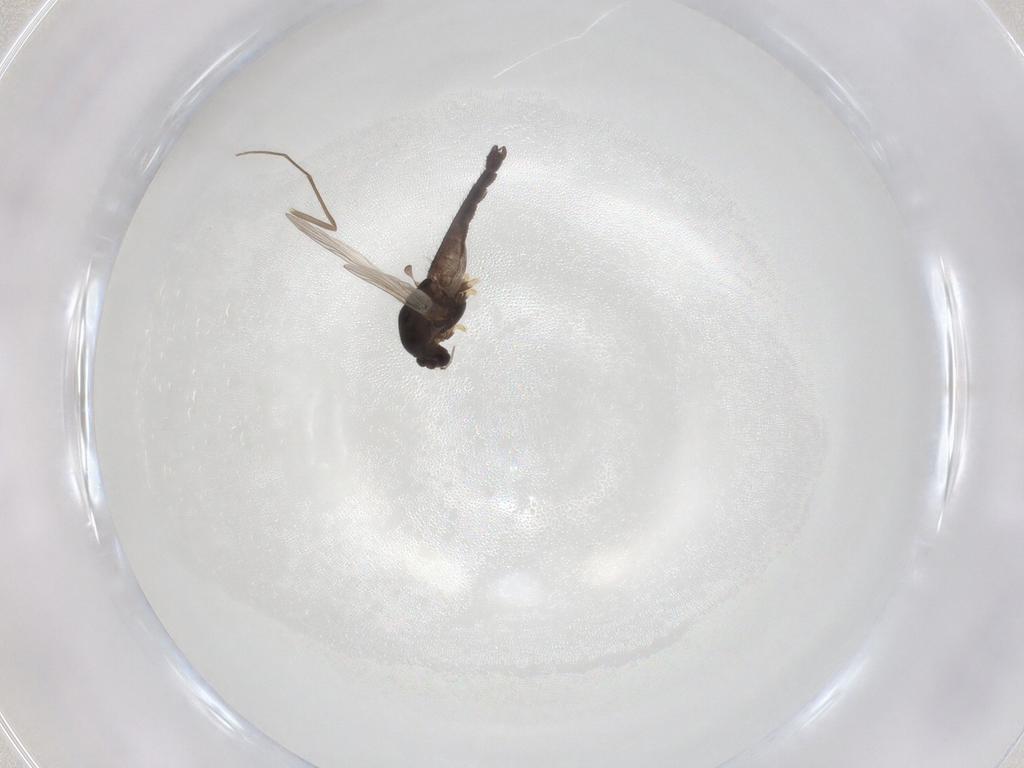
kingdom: Animalia
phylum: Arthropoda
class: Insecta
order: Diptera
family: Chironomidae
